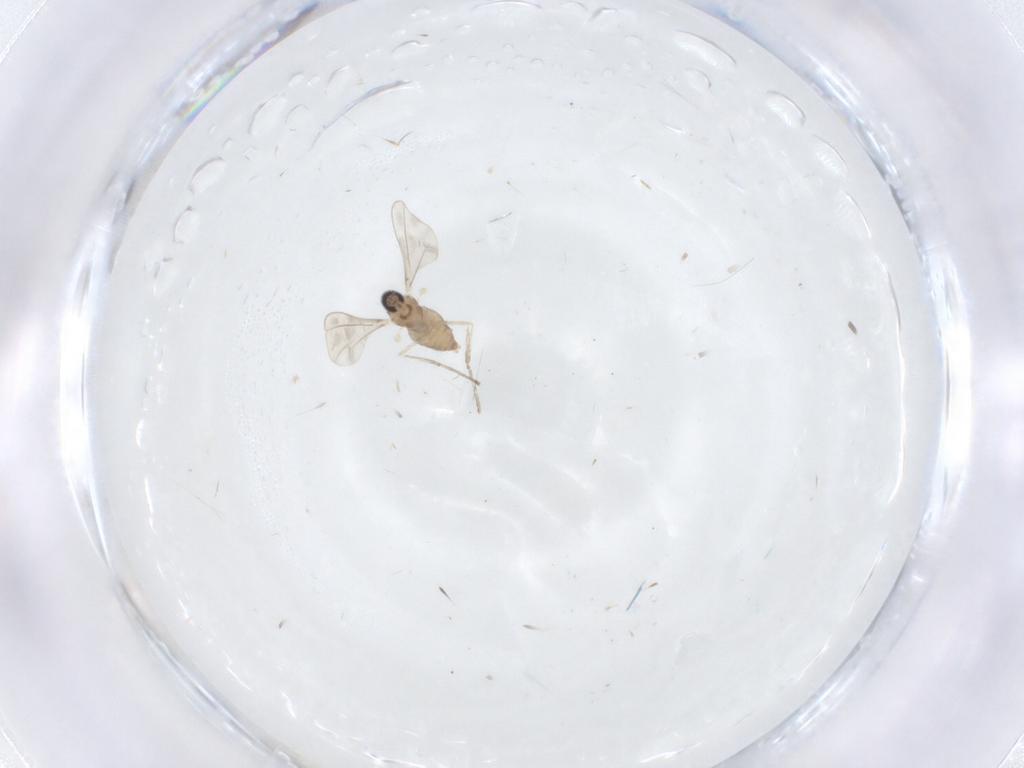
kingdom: Animalia
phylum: Arthropoda
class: Insecta
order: Diptera
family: Cecidomyiidae
